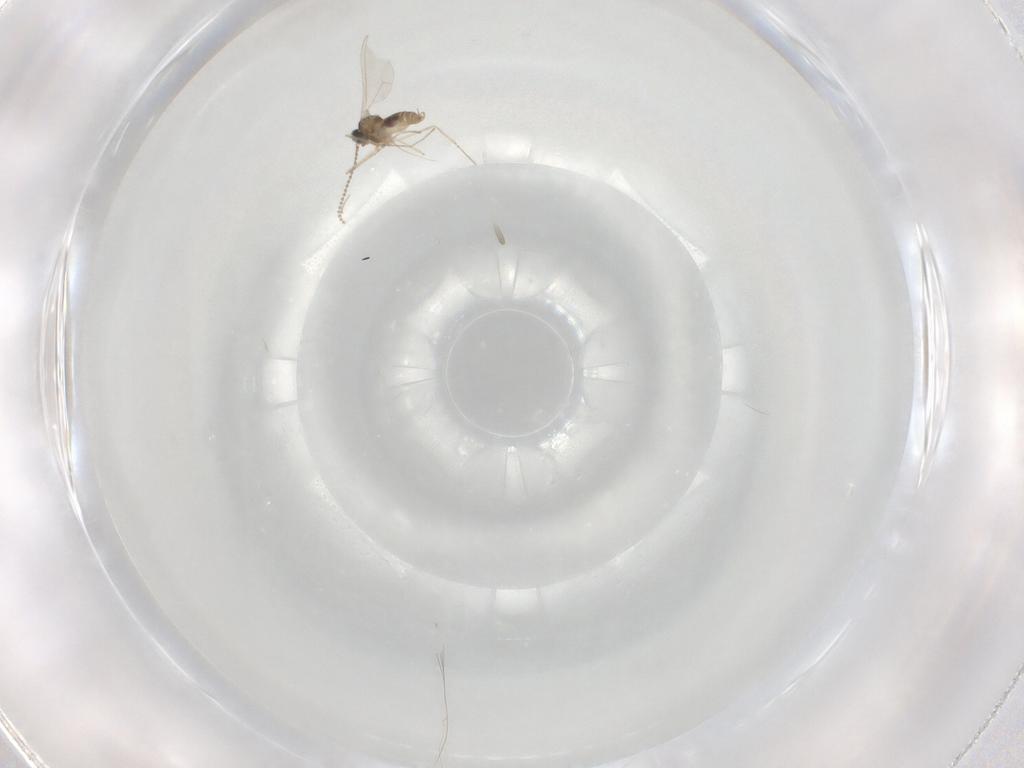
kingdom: Animalia
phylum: Arthropoda
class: Insecta
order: Diptera
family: Cecidomyiidae
